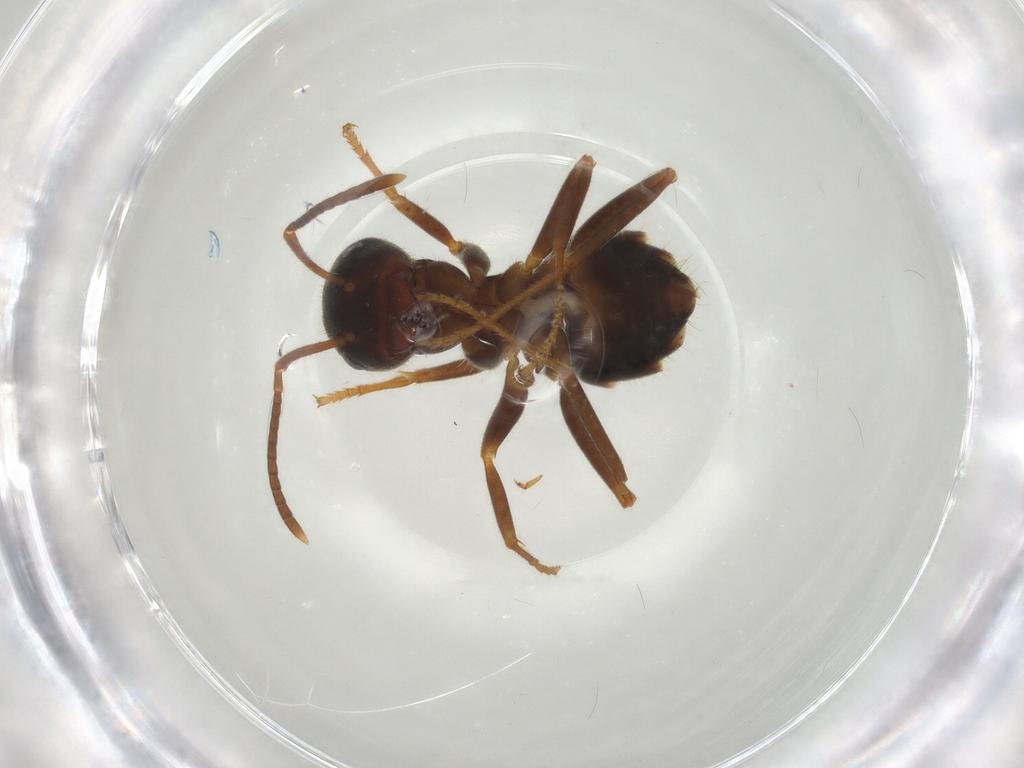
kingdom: Animalia
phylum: Arthropoda
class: Insecta
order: Hymenoptera
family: Formicidae
